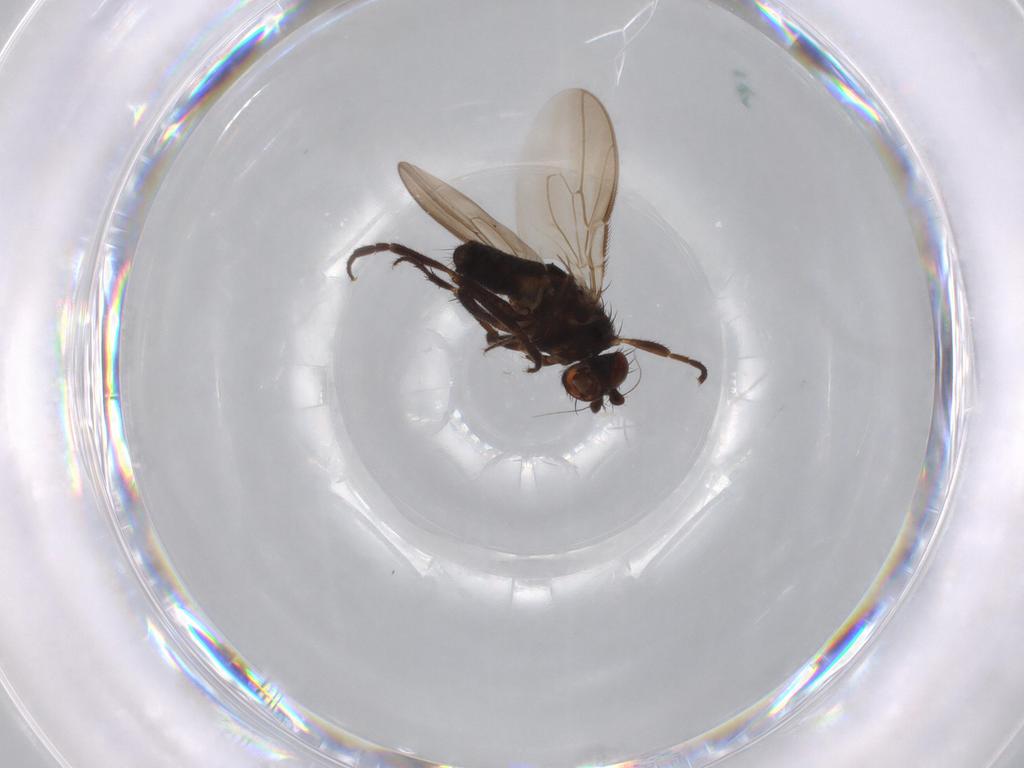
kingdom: Animalia
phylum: Arthropoda
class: Insecta
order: Diptera
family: Sphaeroceridae
